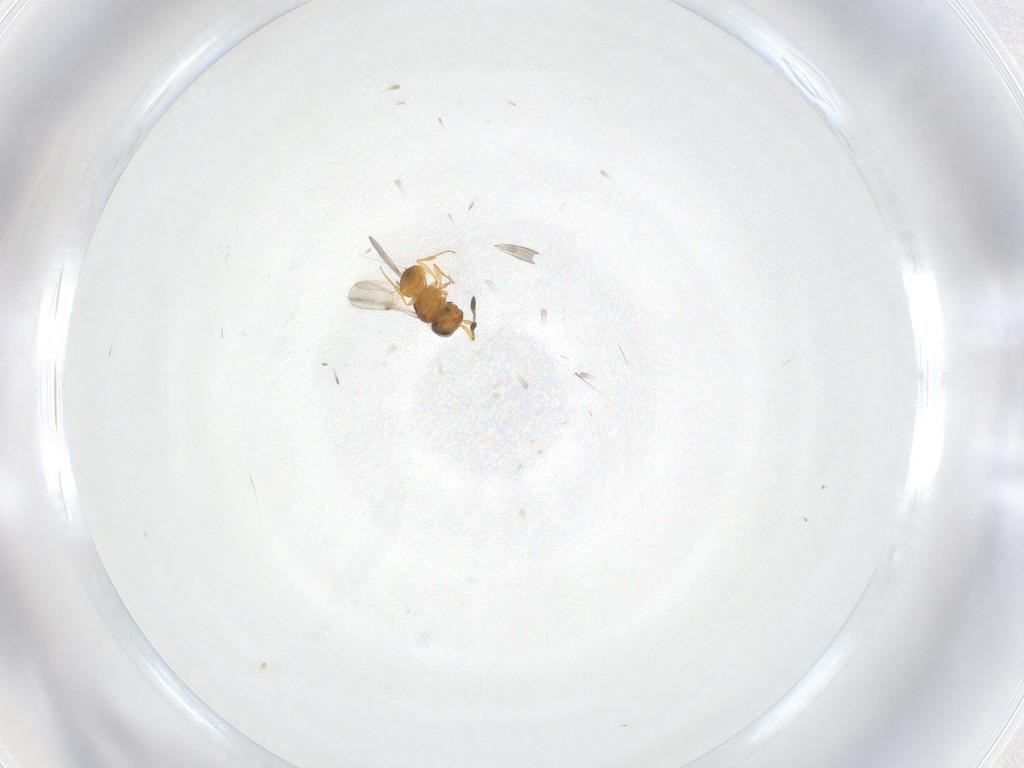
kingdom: Animalia
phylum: Arthropoda
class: Insecta
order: Hymenoptera
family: Scelionidae
